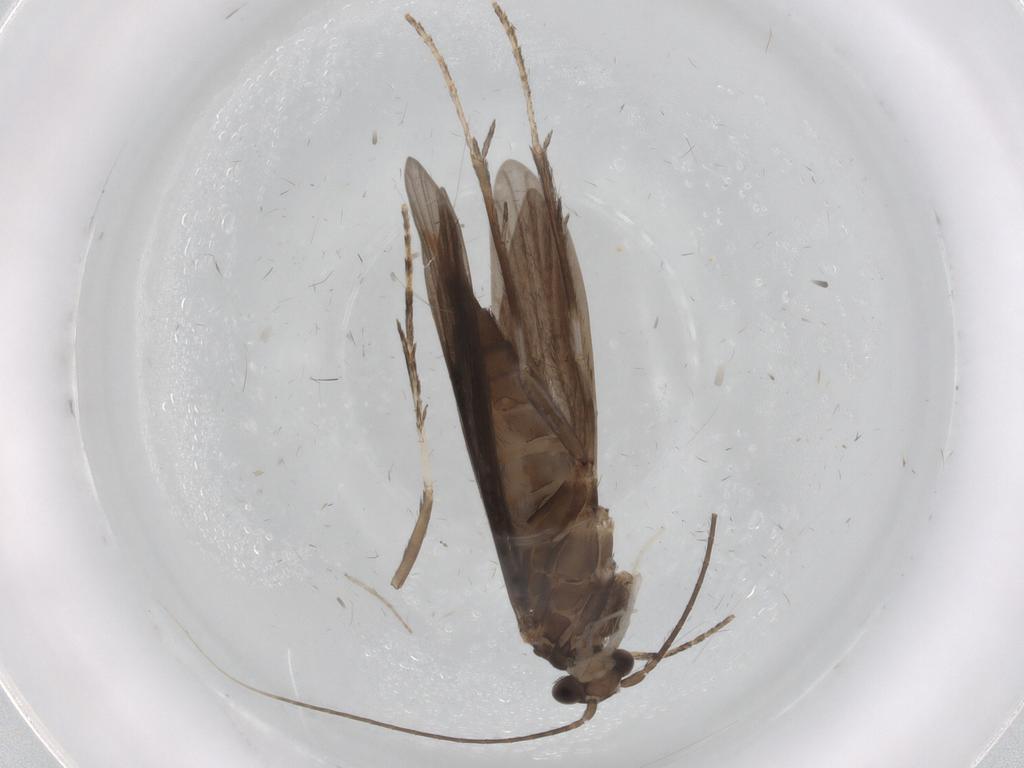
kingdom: Animalia
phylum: Arthropoda
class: Insecta
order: Trichoptera
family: Xiphocentronidae
